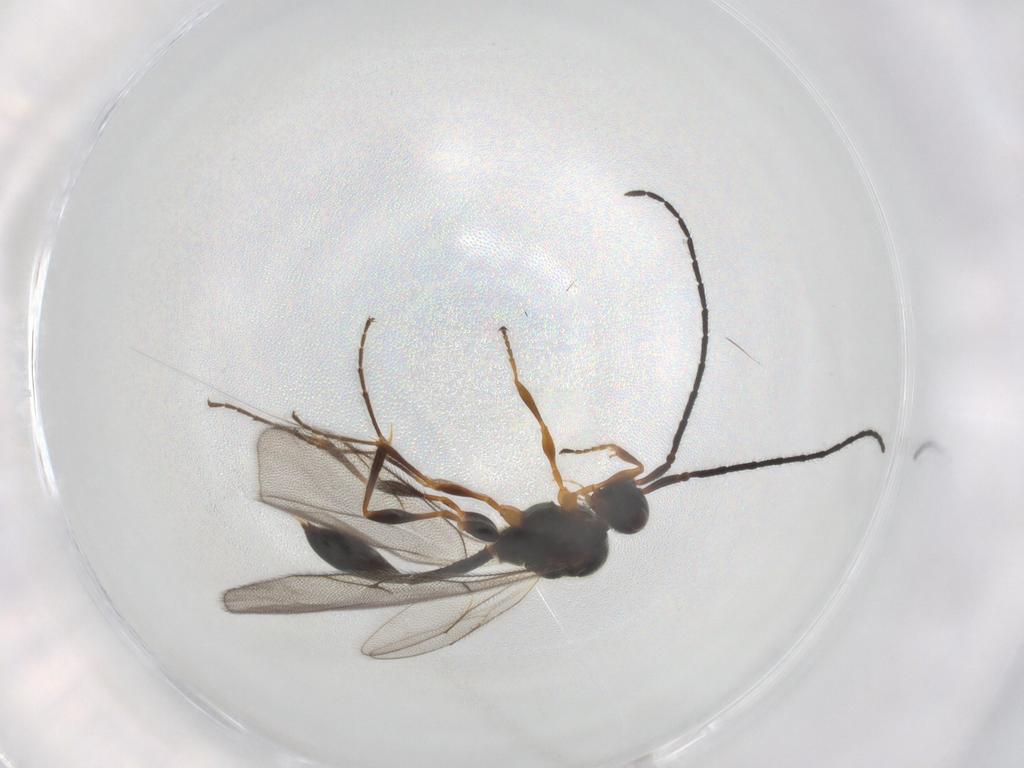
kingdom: Animalia
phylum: Arthropoda
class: Insecta
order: Hymenoptera
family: Diapriidae
